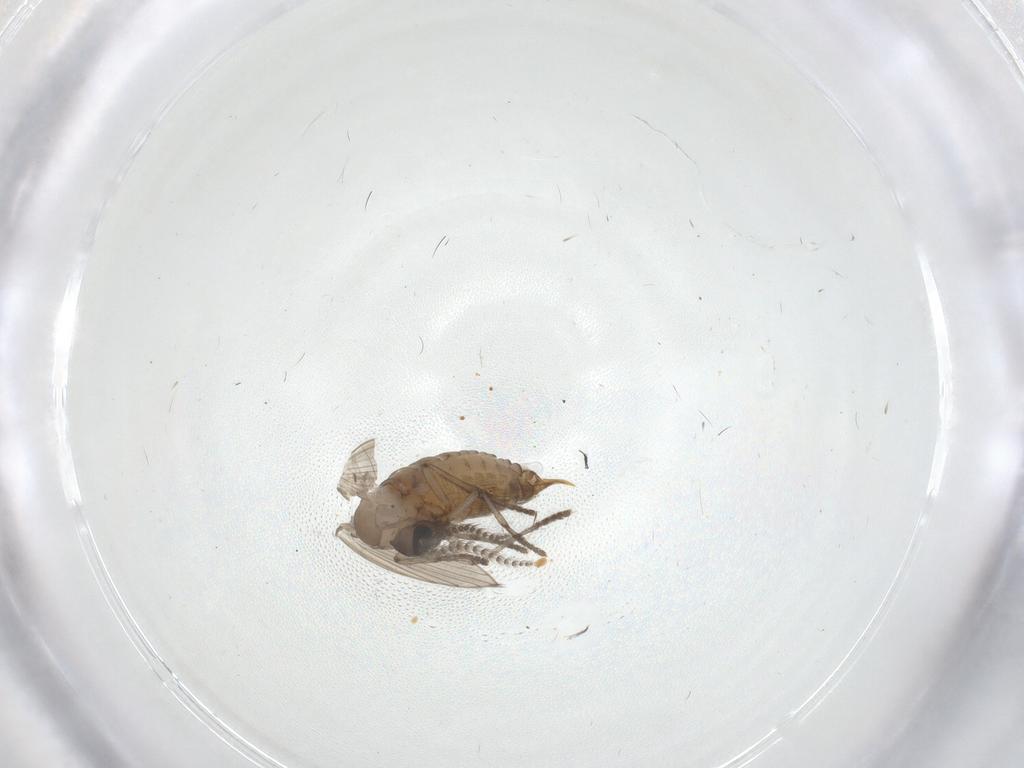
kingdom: Animalia
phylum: Arthropoda
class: Insecta
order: Diptera
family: Psychodidae
